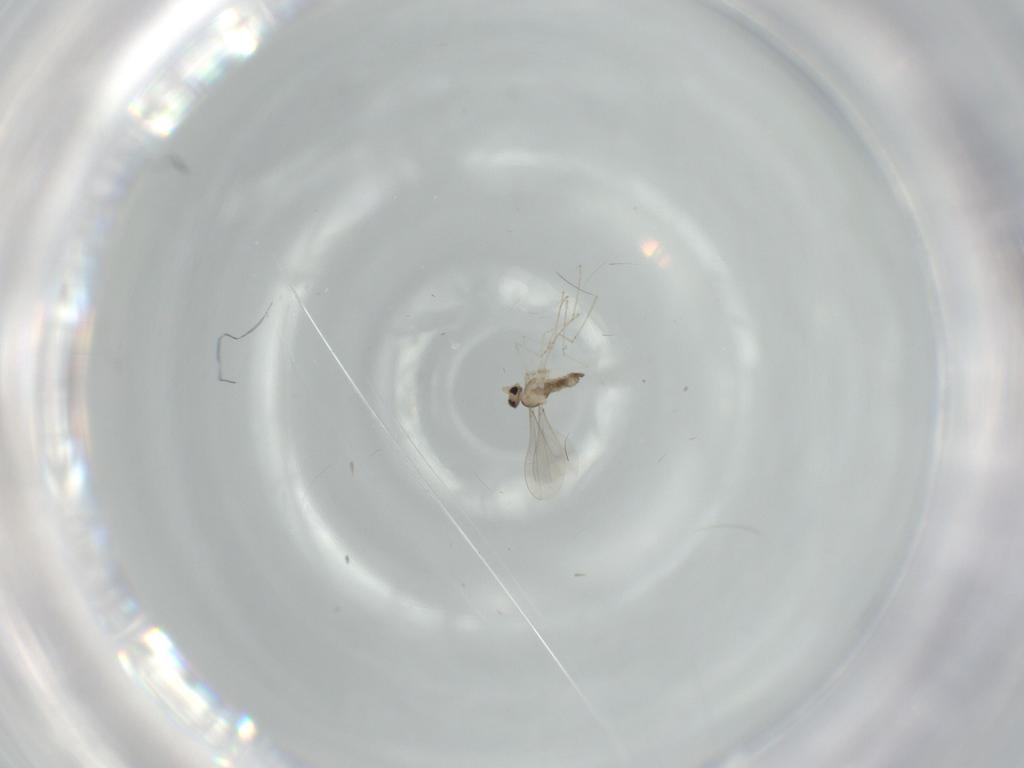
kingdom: Animalia
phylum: Arthropoda
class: Insecta
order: Diptera
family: Cecidomyiidae
